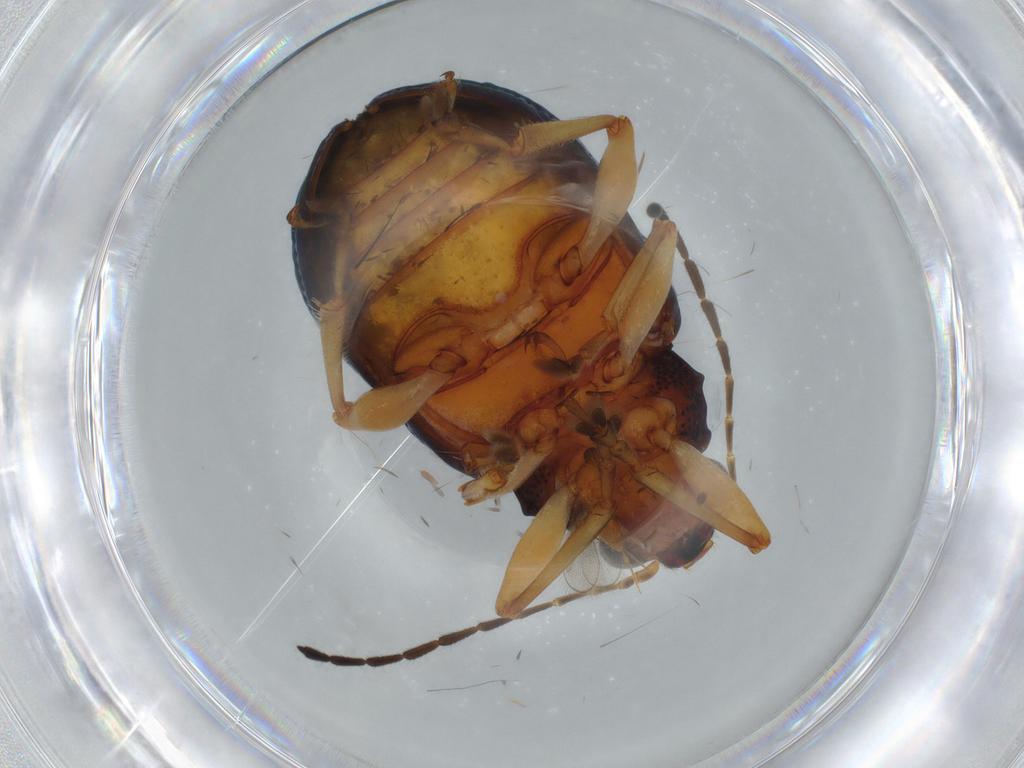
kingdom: Animalia
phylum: Arthropoda
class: Insecta
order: Coleoptera
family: Chrysomelidae
